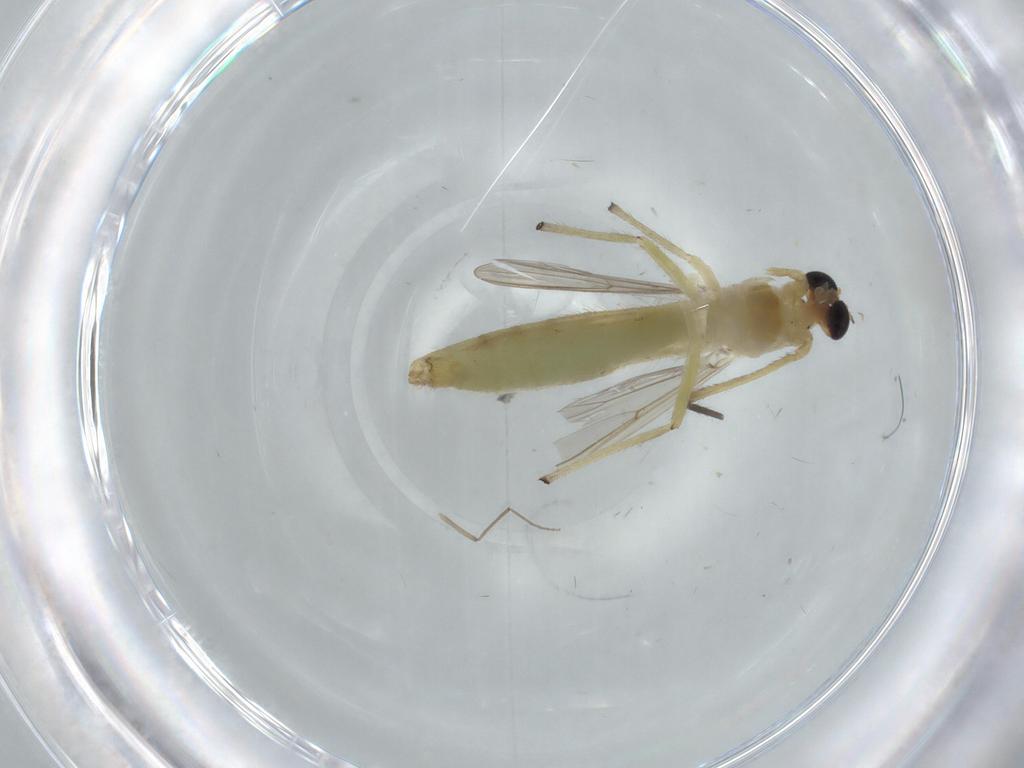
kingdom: Animalia
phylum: Arthropoda
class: Insecta
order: Diptera
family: Chironomidae
